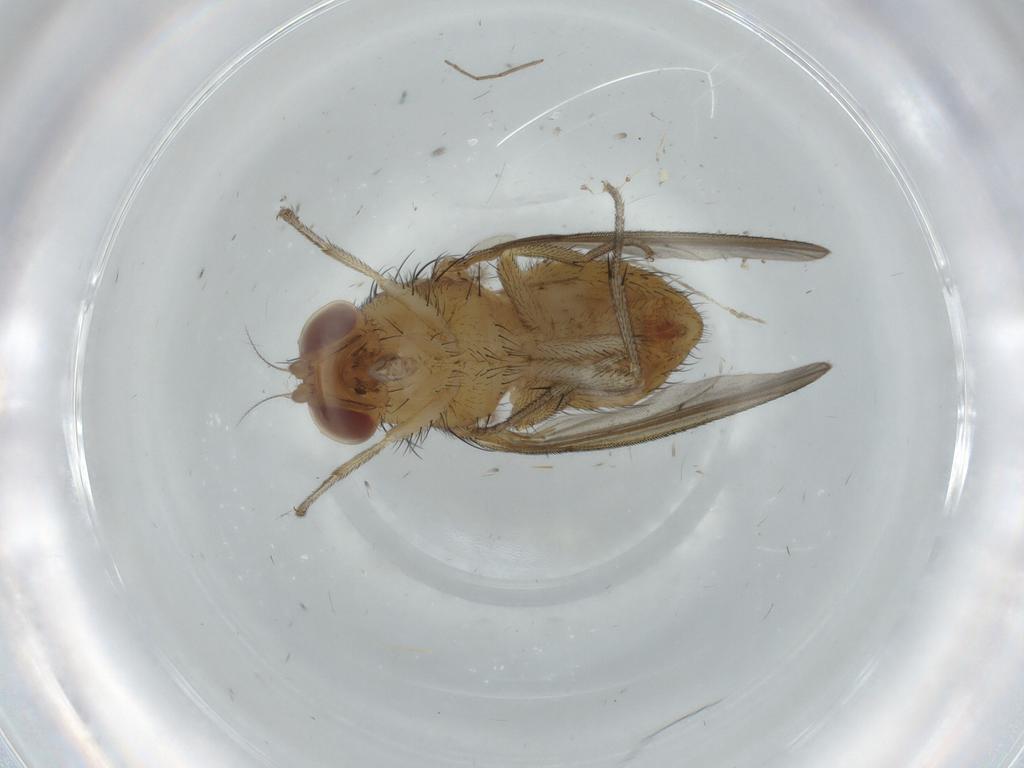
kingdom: Animalia
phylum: Arthropoda
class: Insecta
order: Diptera
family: Lauxaniidae
